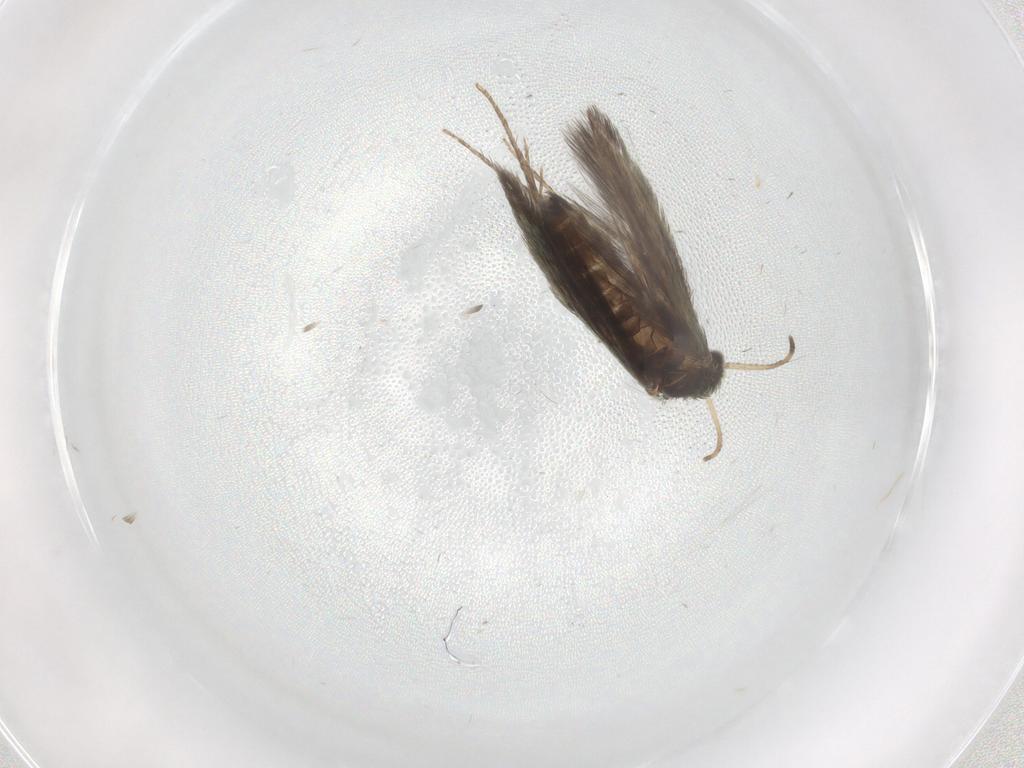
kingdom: Animalia
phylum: Arthropoda
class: Insecta
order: Trichoptera
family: Hydroptilidae
